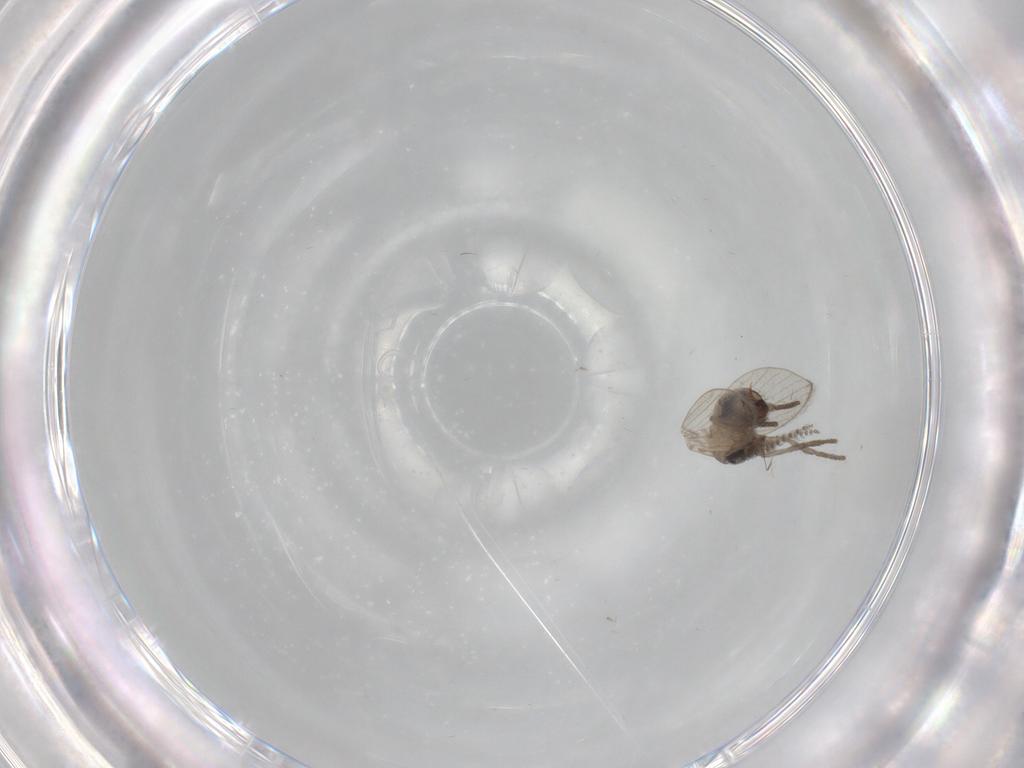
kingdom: Animalia
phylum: Arthropoda
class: Insecta
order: Diptera
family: Psychodidae
